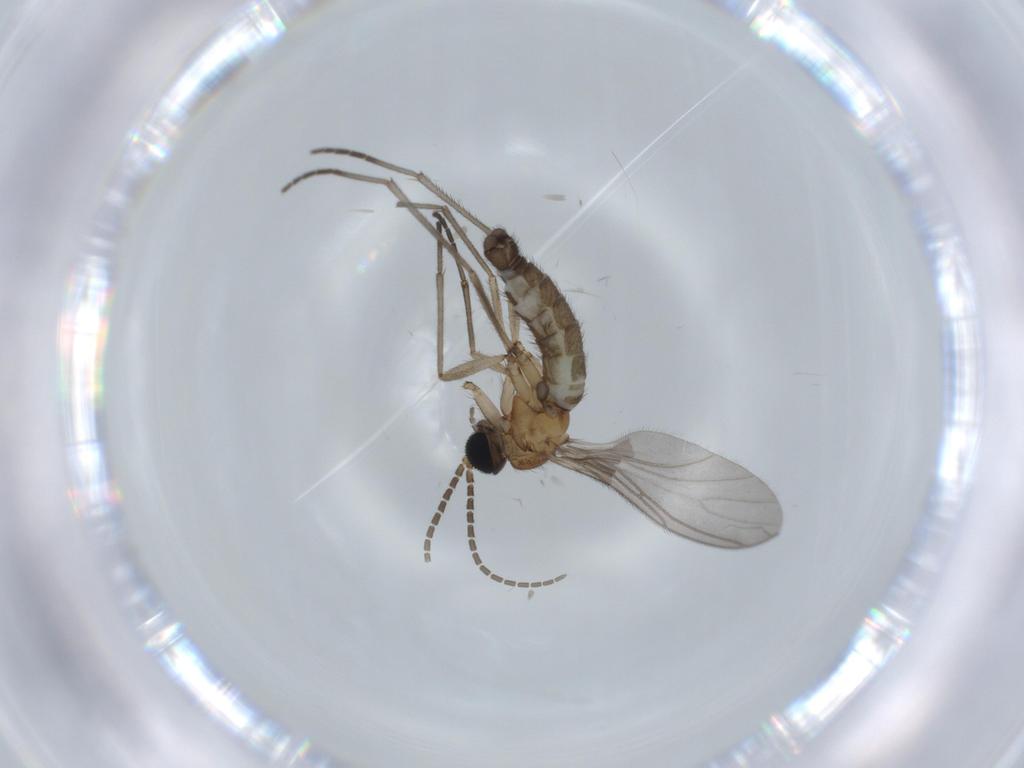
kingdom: Animalia
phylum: Arthropoda
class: Insecta
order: Diptera
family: Sciaridae
